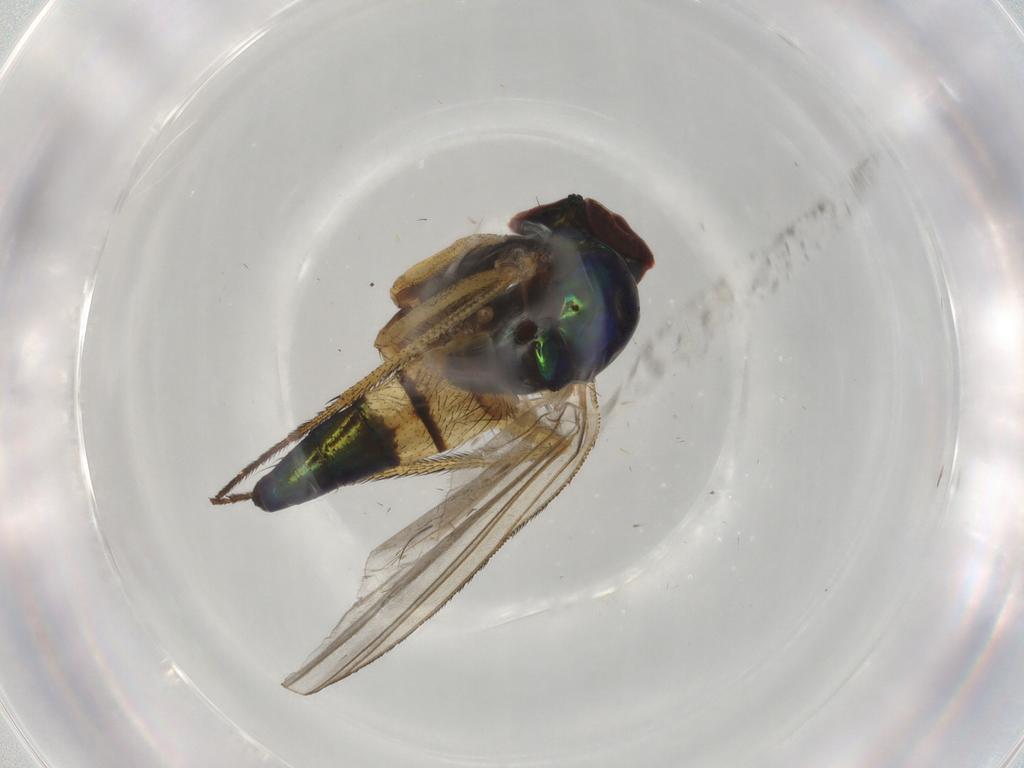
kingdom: Animalia
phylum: Arthropoda
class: Insecta
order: Diptera
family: Dolichopodidae
